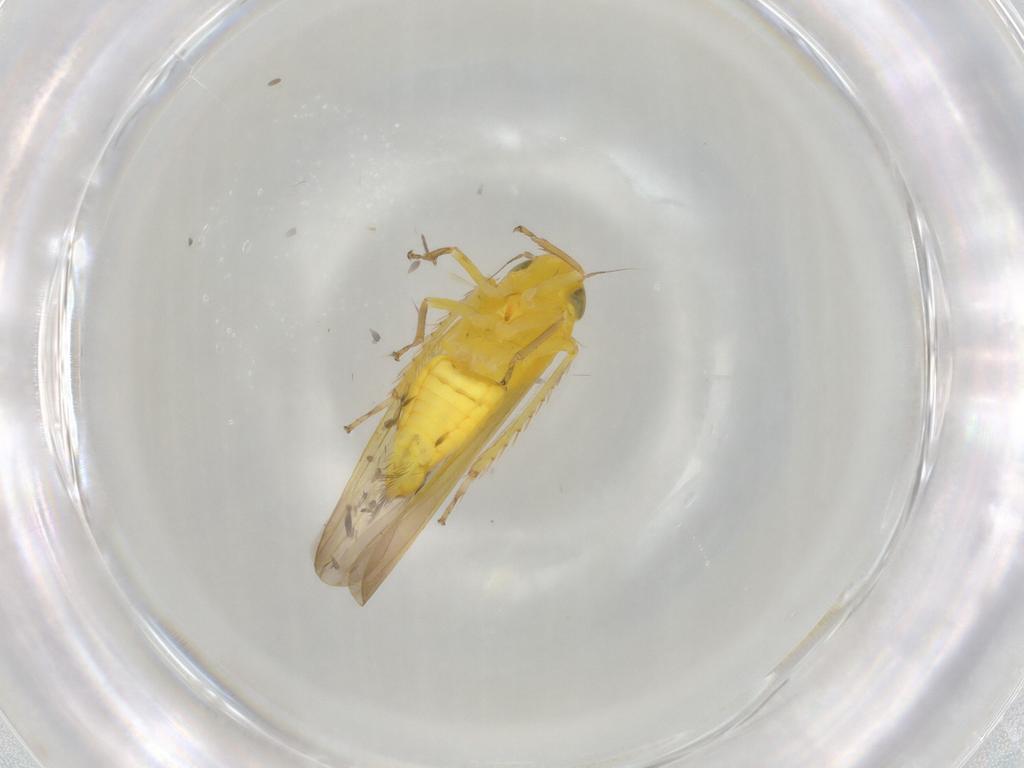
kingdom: Animalia
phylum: Arthropoda
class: Insecta
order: Hemiptera
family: Cicadellidae
